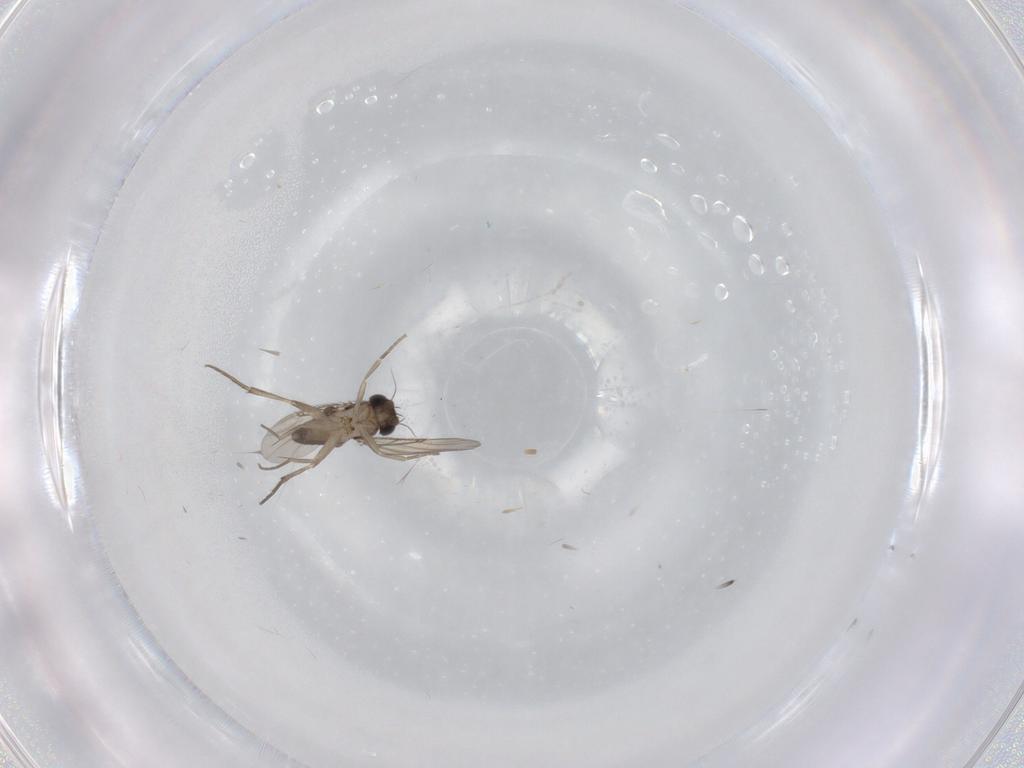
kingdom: Animalia
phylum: Arthropoda
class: Insecta
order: Diptera
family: Phoridae
